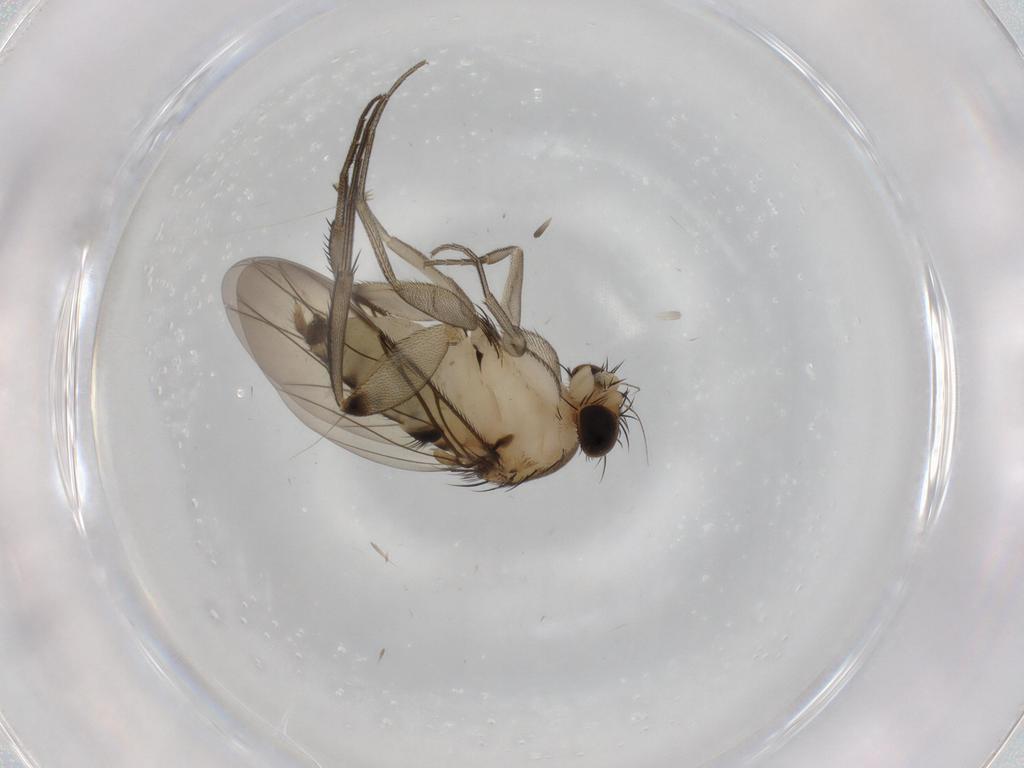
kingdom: Animalia
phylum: Arthropoda
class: Insecta
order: Diptera
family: Phoridae
